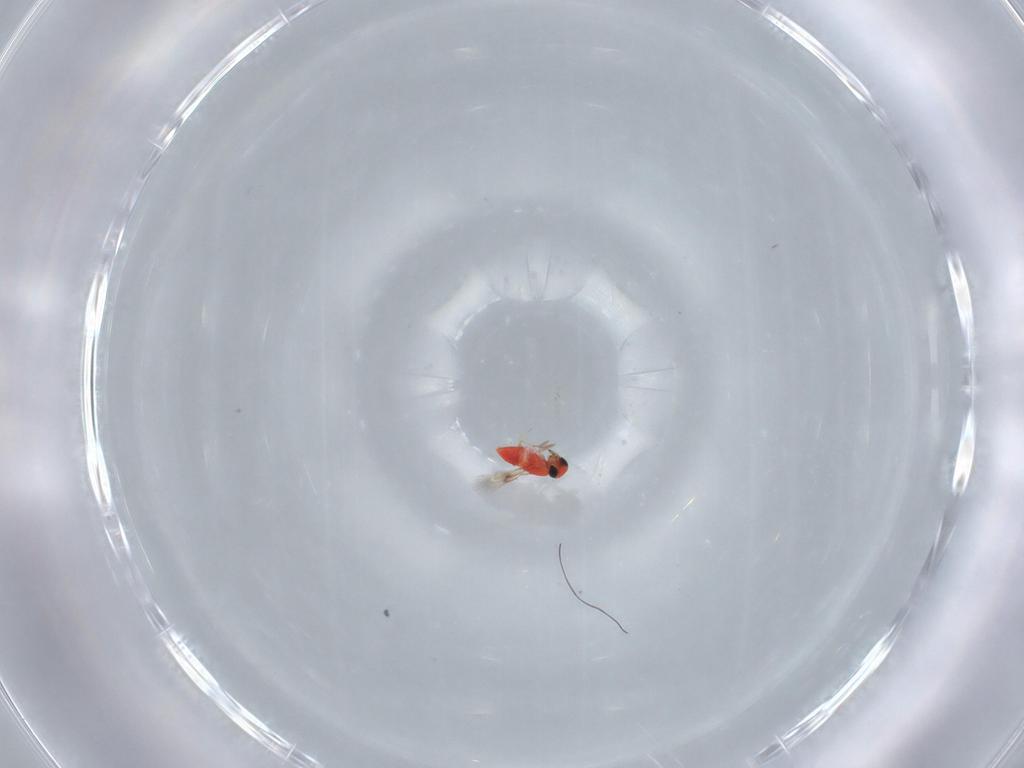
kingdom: Animalia
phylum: Arthropoda
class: Insecta
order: Hymenoptera
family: Trichogrammatidae
